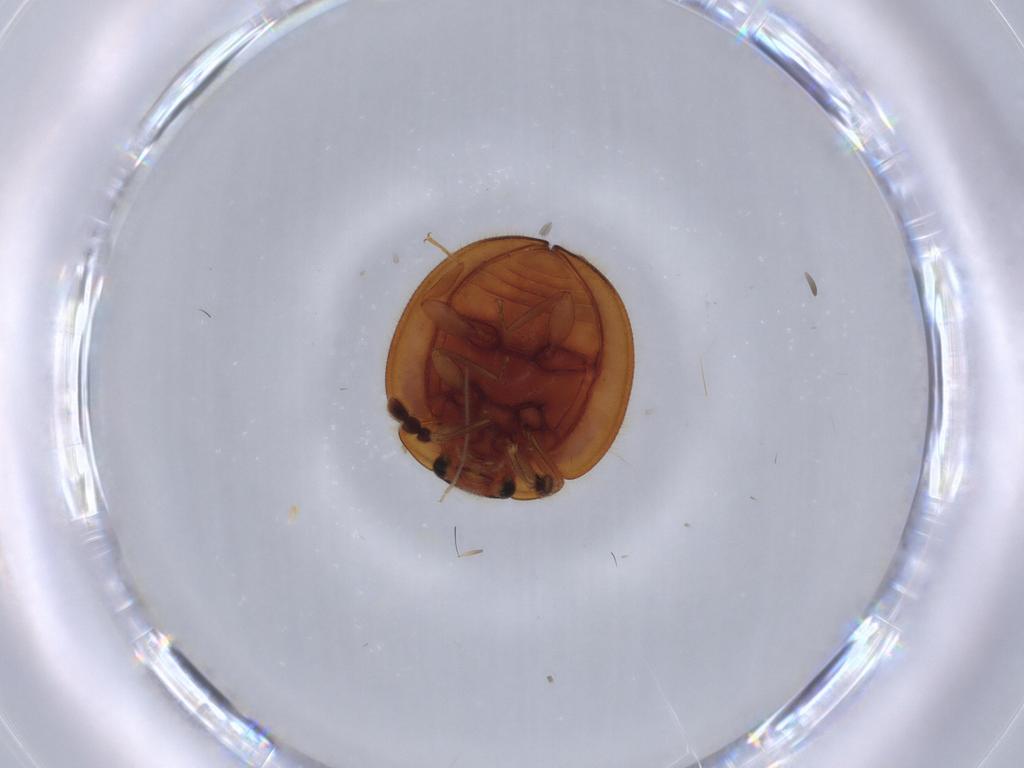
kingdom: Animalia
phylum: Arthropoda
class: Insecta
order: Coleoptera
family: Anamorphidae
